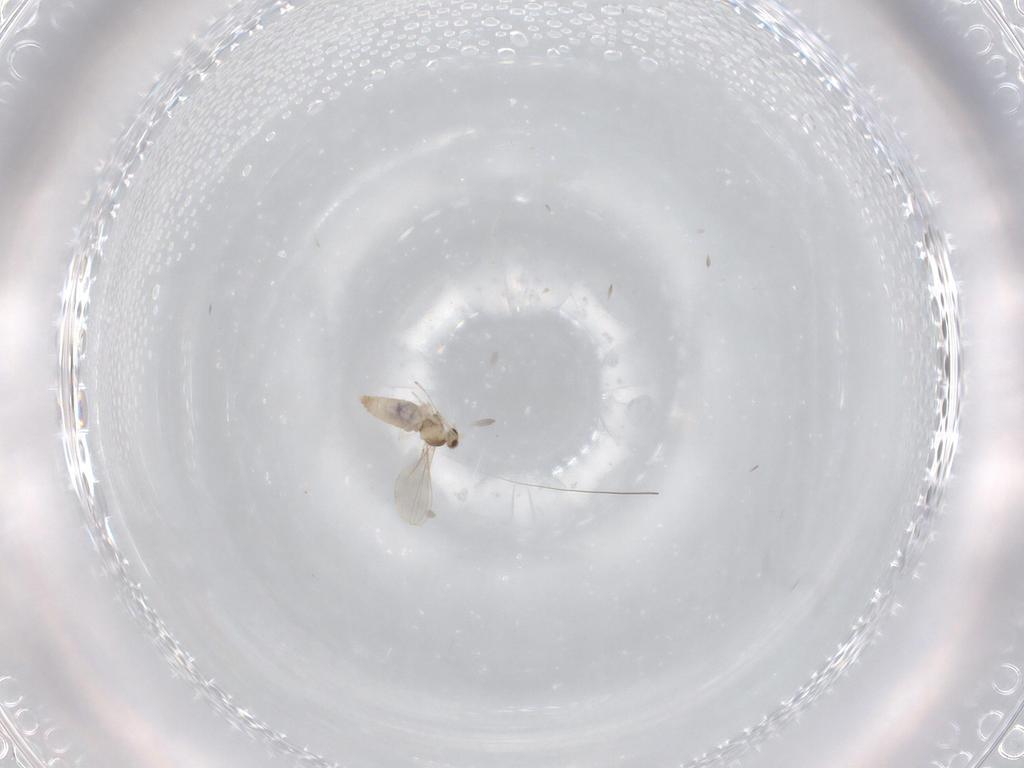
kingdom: Animalia
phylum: Arthropoda
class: Insecta
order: Diptera
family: Cecidomyiidae
